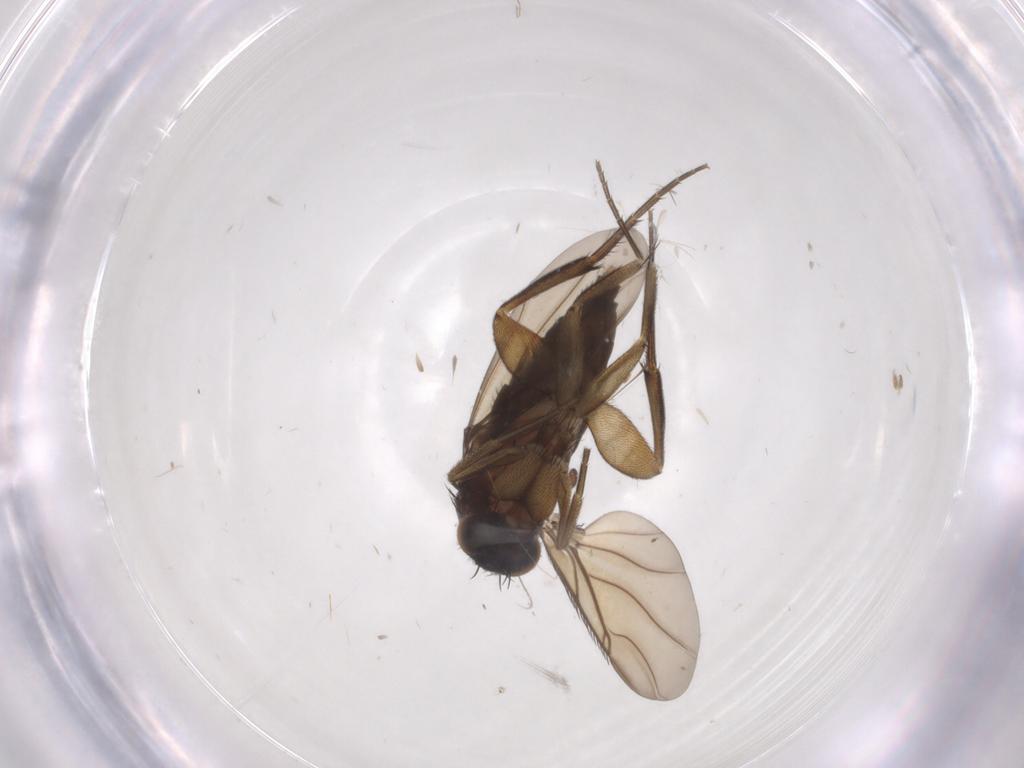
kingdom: Animalia
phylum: Arthropoda
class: Insecta
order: Diptera
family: Phoridae
